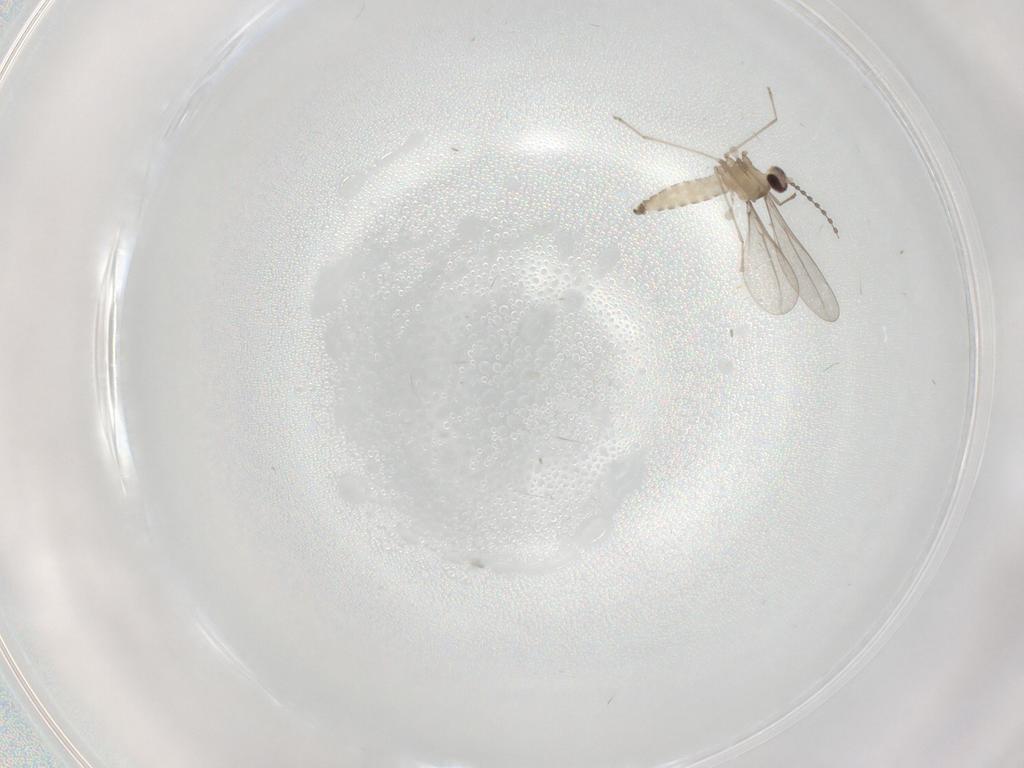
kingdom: Animalia
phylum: Arthropoda
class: Insecta
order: Diptera
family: Cecidomyiidae
